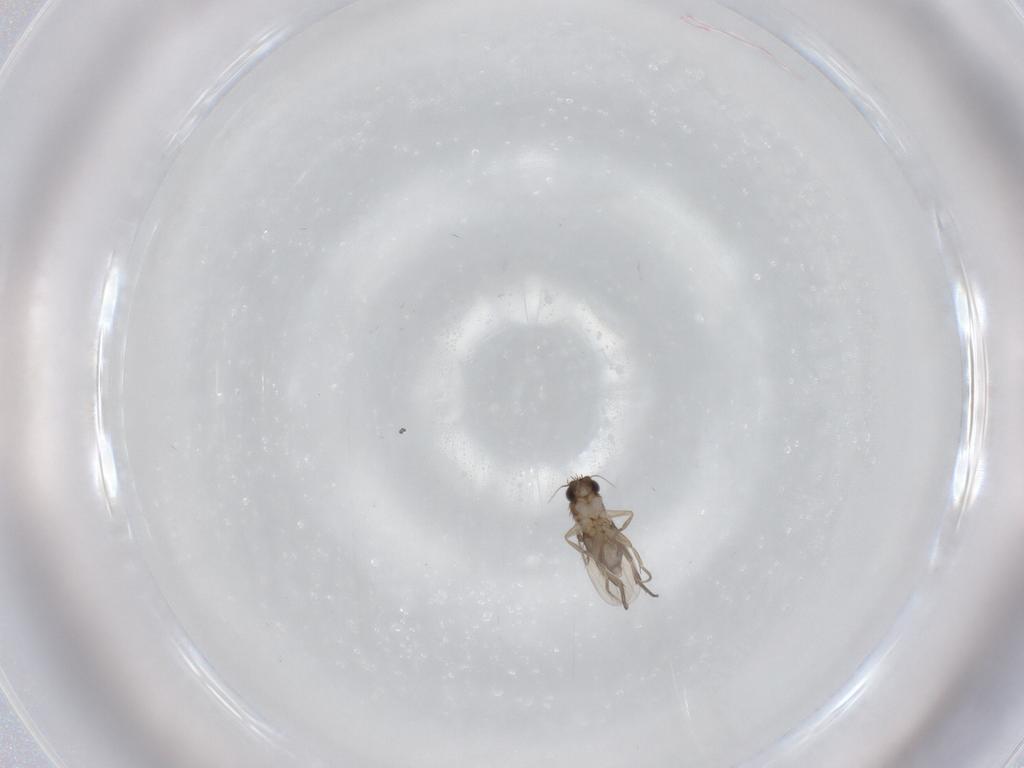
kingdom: Animalia
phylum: Arthropoda
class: Insecta
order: Diptera
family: Phoridae
